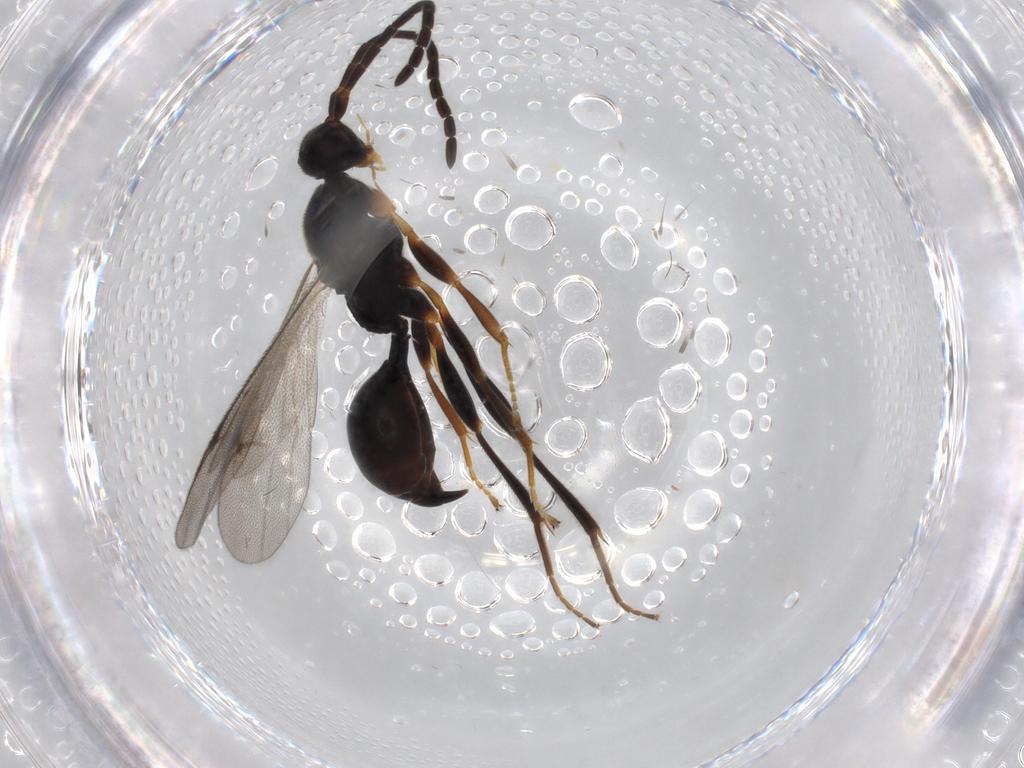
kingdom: Animalia
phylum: Arthropoda
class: Insecta
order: Hymenoptera
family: Proctotrupidae
